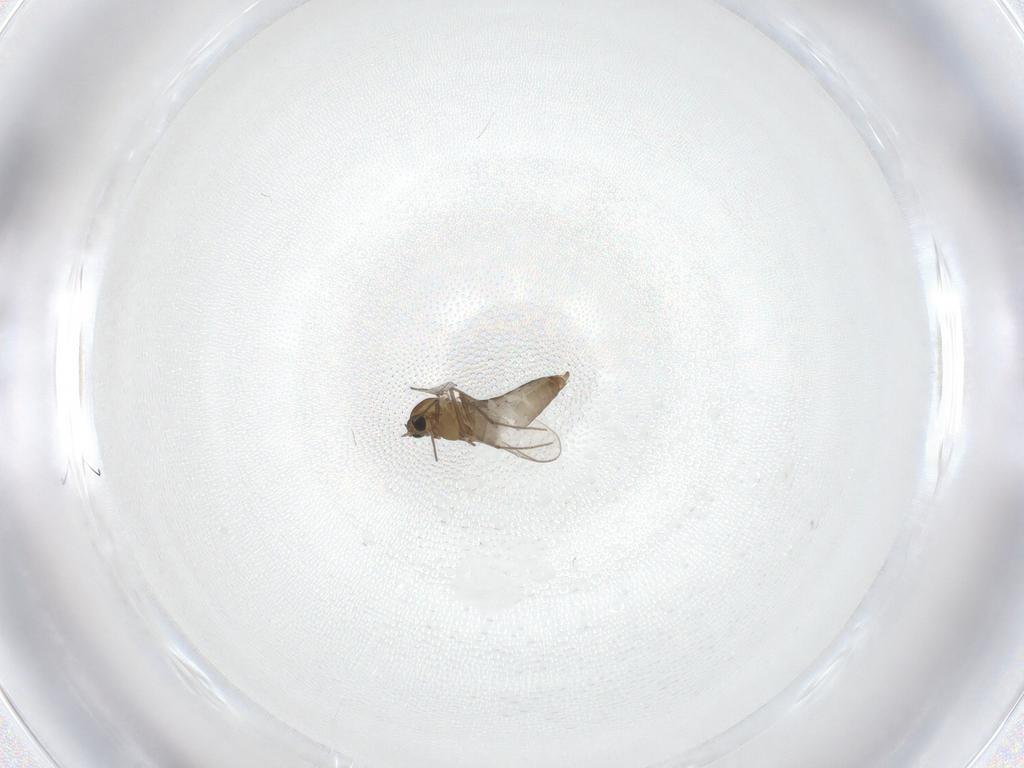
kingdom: Animalia
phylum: Arthropoda
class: Insecta
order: Diptera
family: Chironomidae
